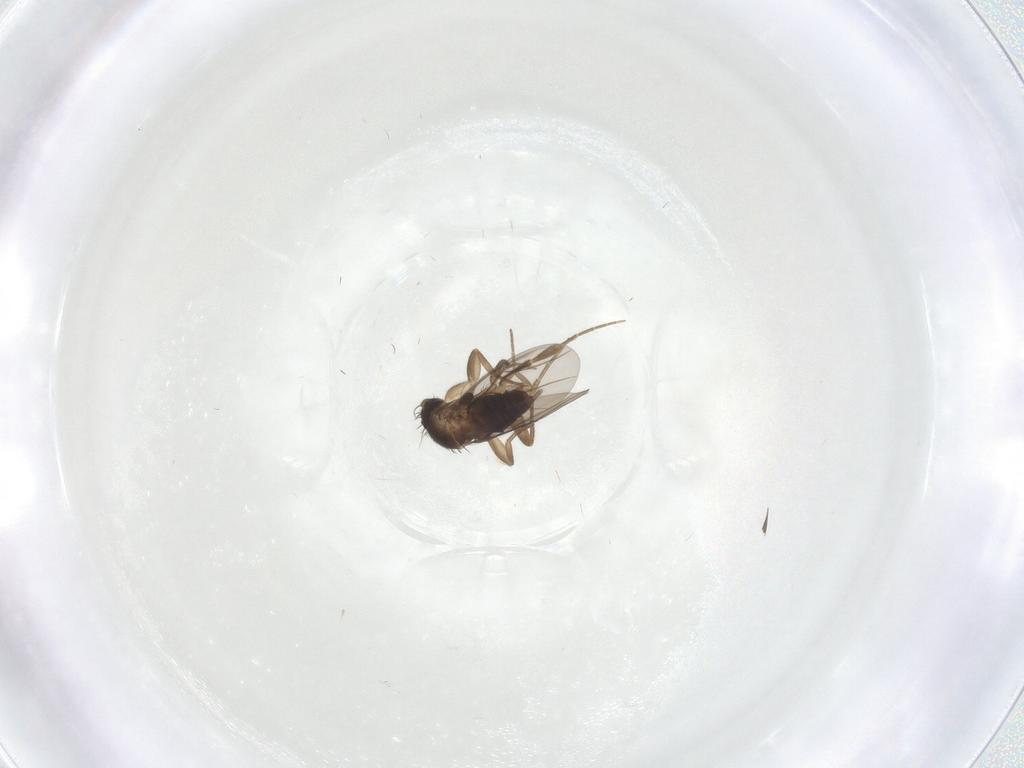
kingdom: Animalia
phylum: Arthropoda
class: Insecta
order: Diptera
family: Phoridae
